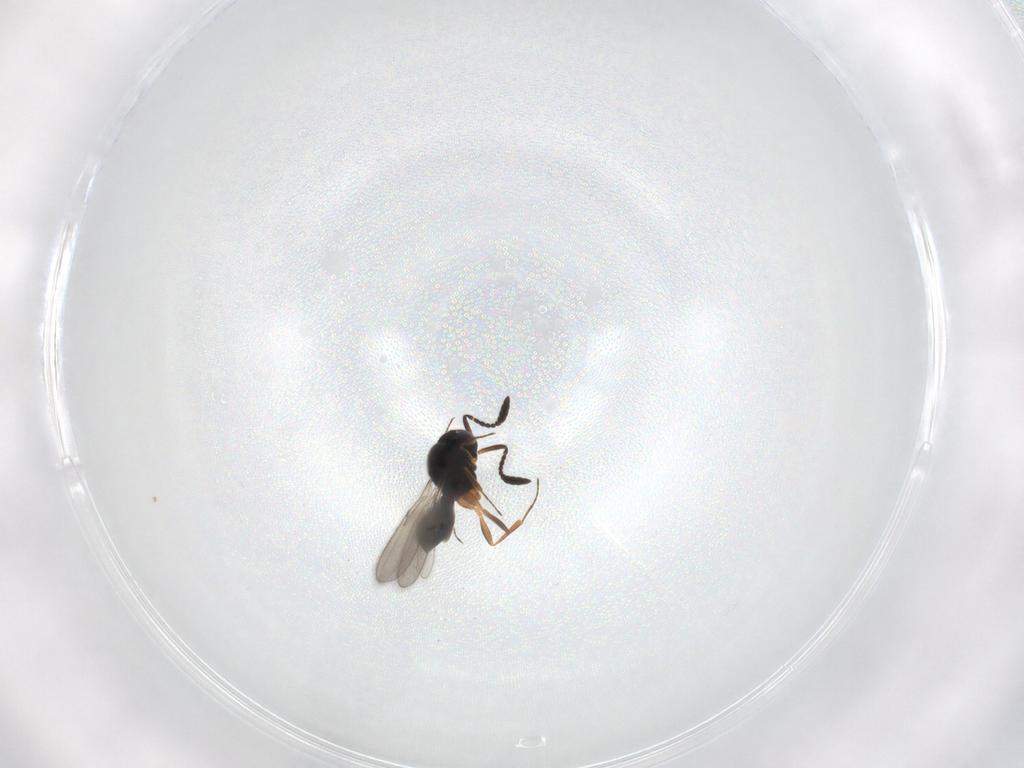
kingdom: Animalia
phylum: Arthropoda
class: Insecta
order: Hymenoptera
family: Scelionidae
